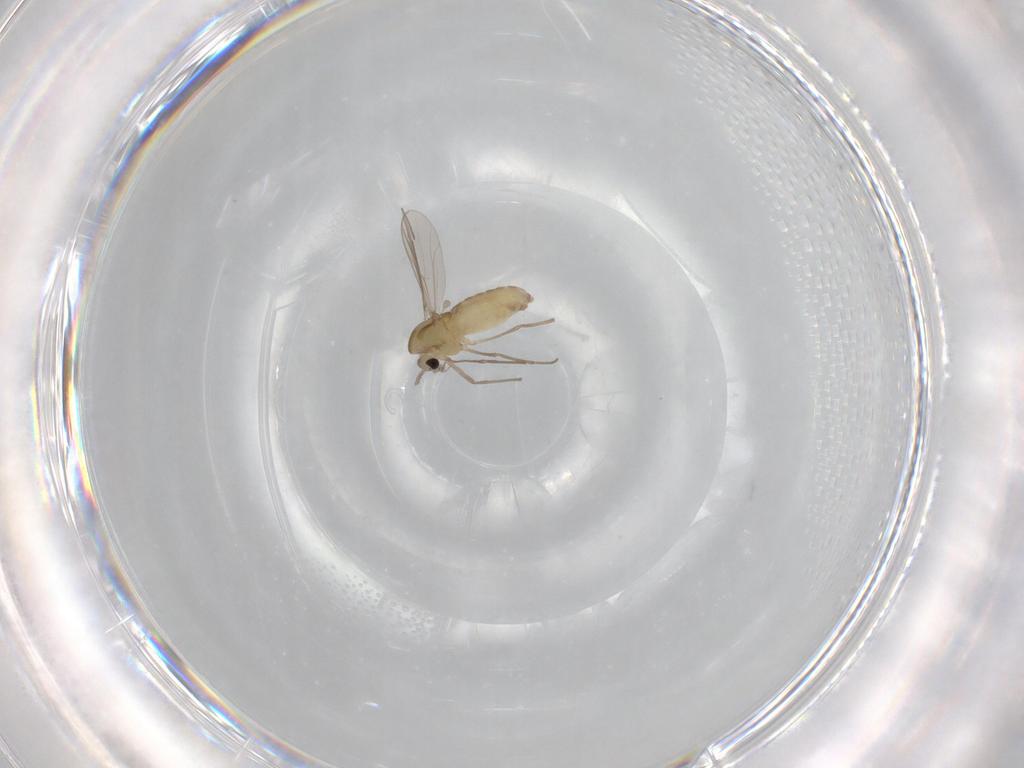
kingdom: Animalia
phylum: Arthropoda
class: Insecta
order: Diptera
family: Chironomidae
